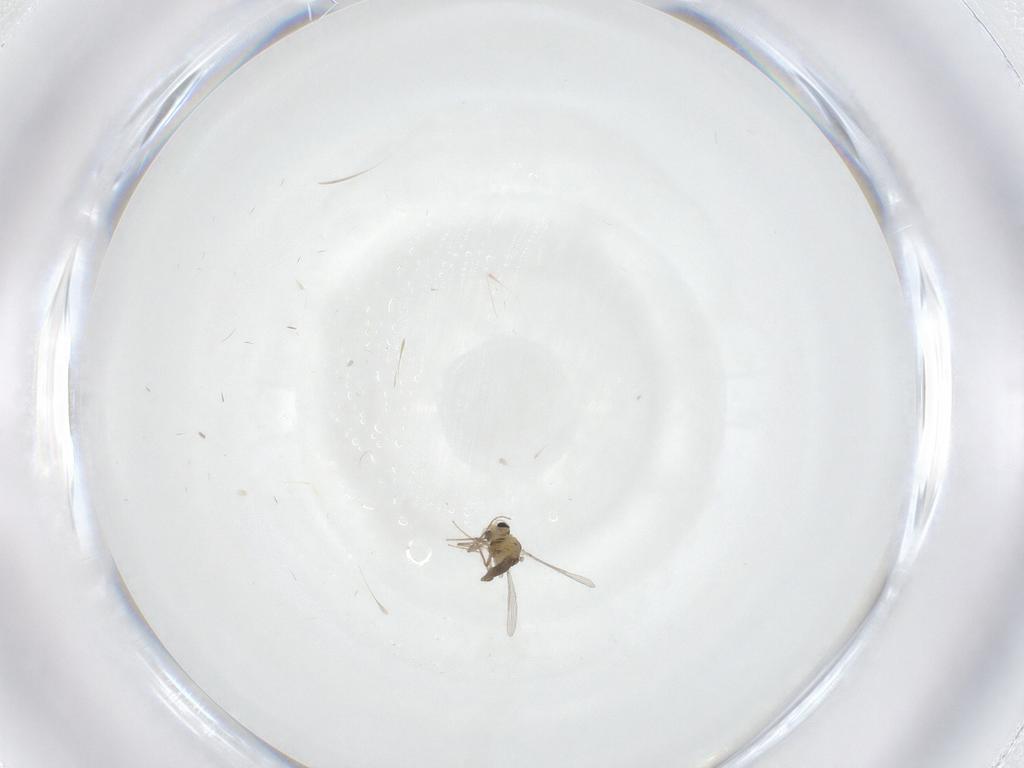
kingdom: Animalia
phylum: Arthropoda
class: Insecta
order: Diptera
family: Chironomidae
